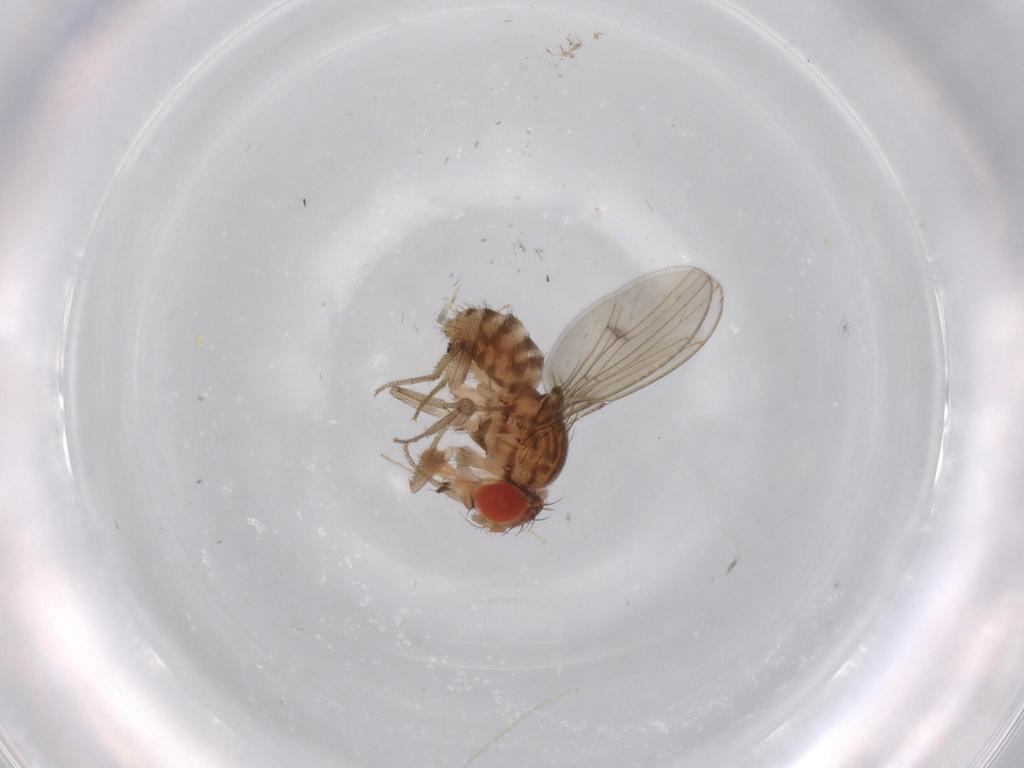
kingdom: Animalia
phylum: Arthropoda
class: Insecta
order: Diptera
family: Drosophilidae
